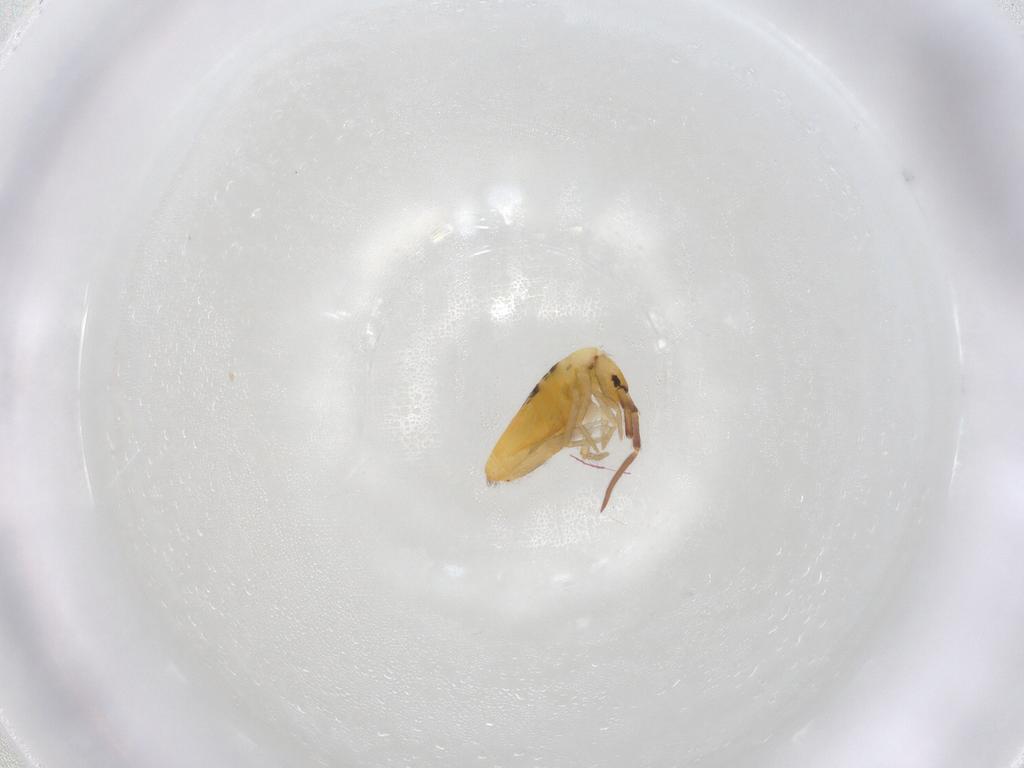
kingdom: Animalia
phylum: Arthropoda
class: Collembola
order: Entomobryomorpha
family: Entomobryidae
